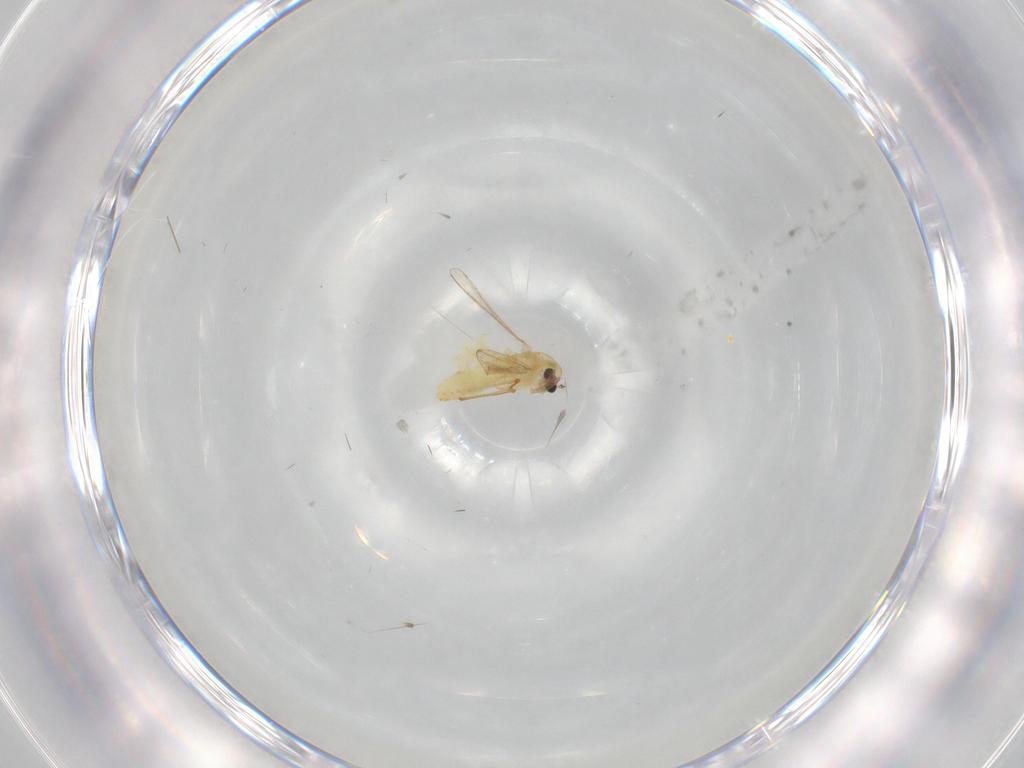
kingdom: Animalia
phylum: Arthropoda
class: Insecta
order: Diptera
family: Chironomidae
